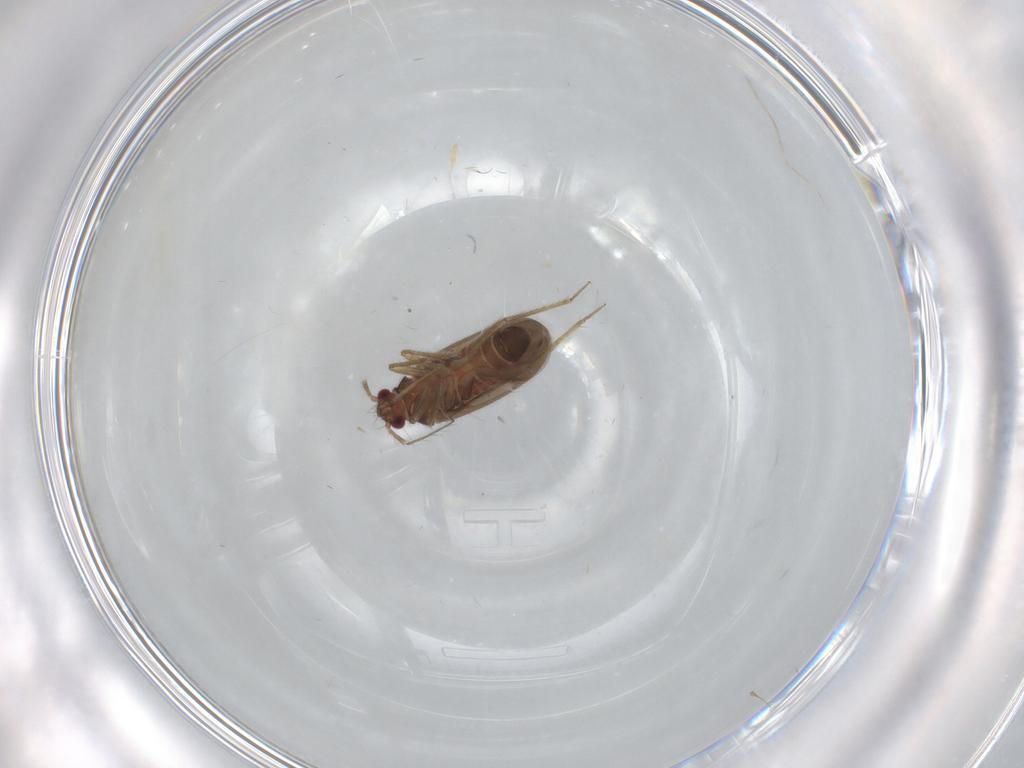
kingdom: Animalia
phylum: Arthropoda
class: Insecta
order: Hemiptera
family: Ceratocombidae
